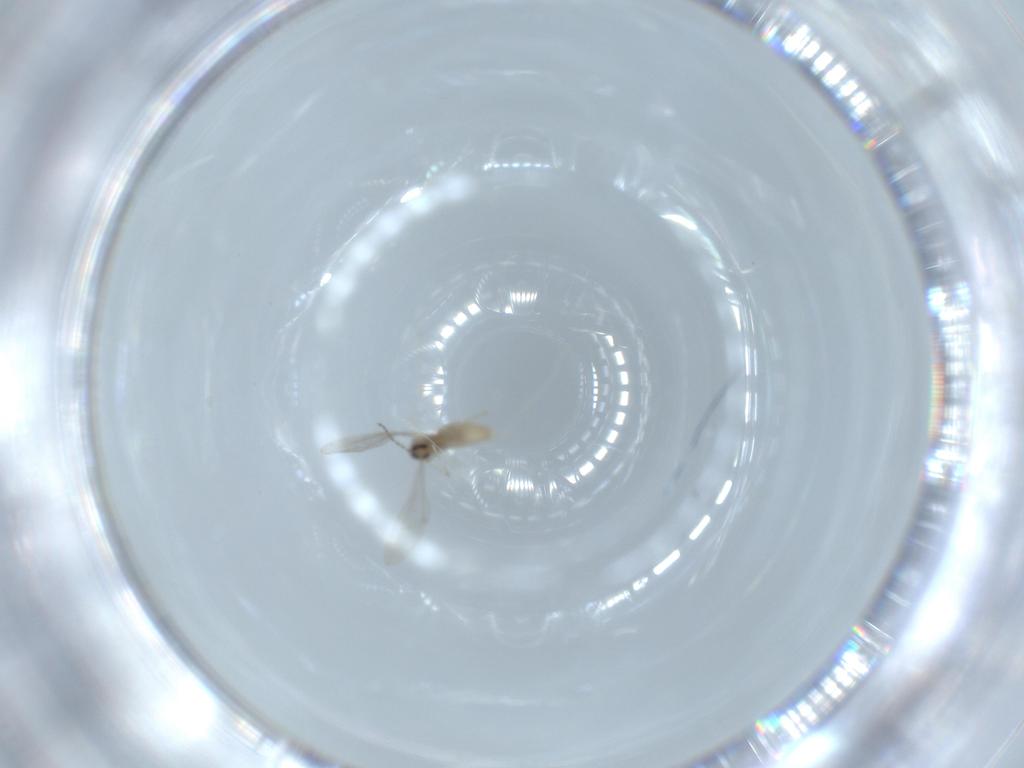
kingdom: Animalia
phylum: Arthropoda
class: Insecta
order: Diptera
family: Cecidomyiidae
